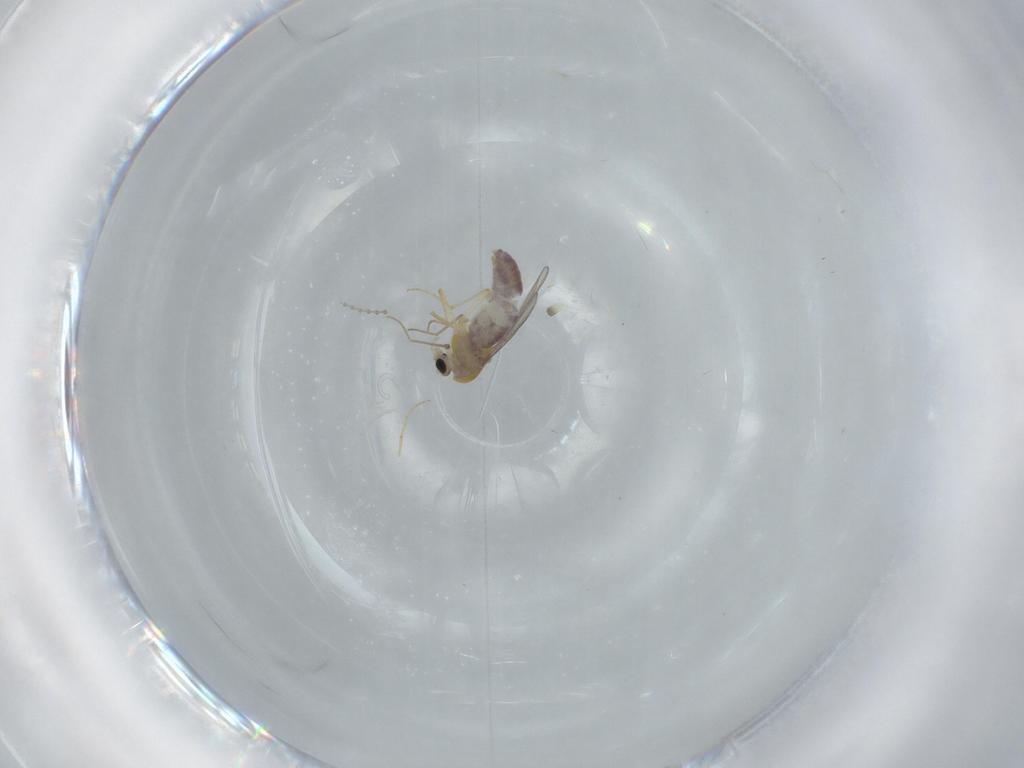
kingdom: Animalia
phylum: Arthropoda
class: Insecta
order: Diptera
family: Chironomidae
